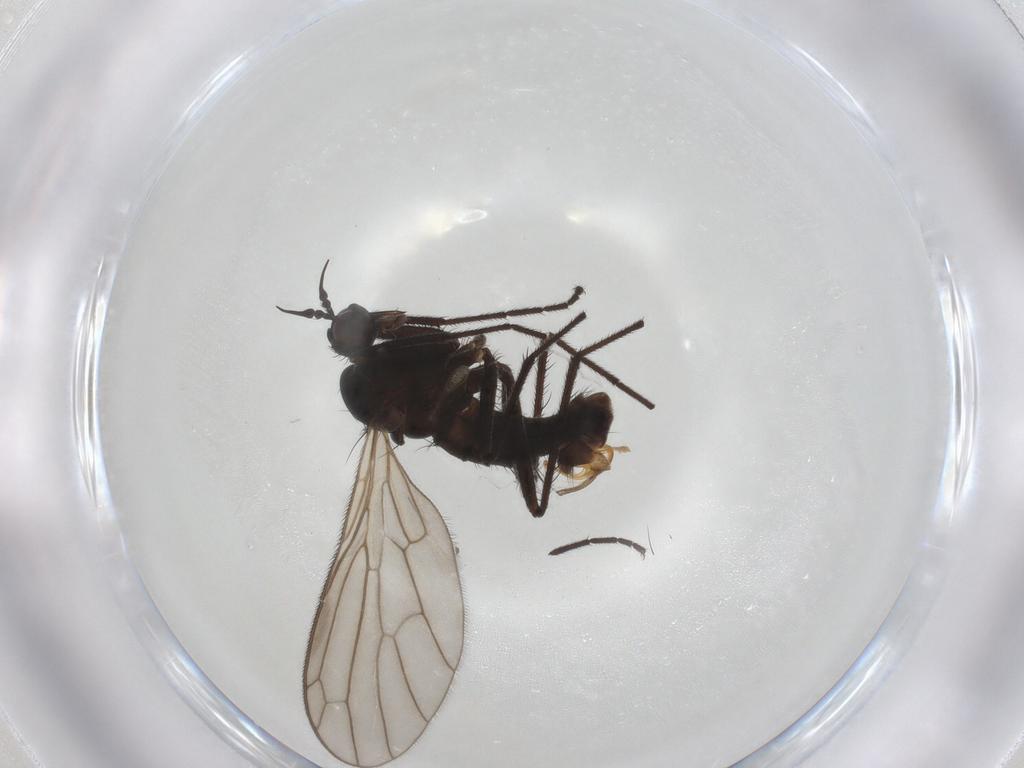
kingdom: Animalia
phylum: Arthropoda
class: Insecta
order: Diptera
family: Empididae
